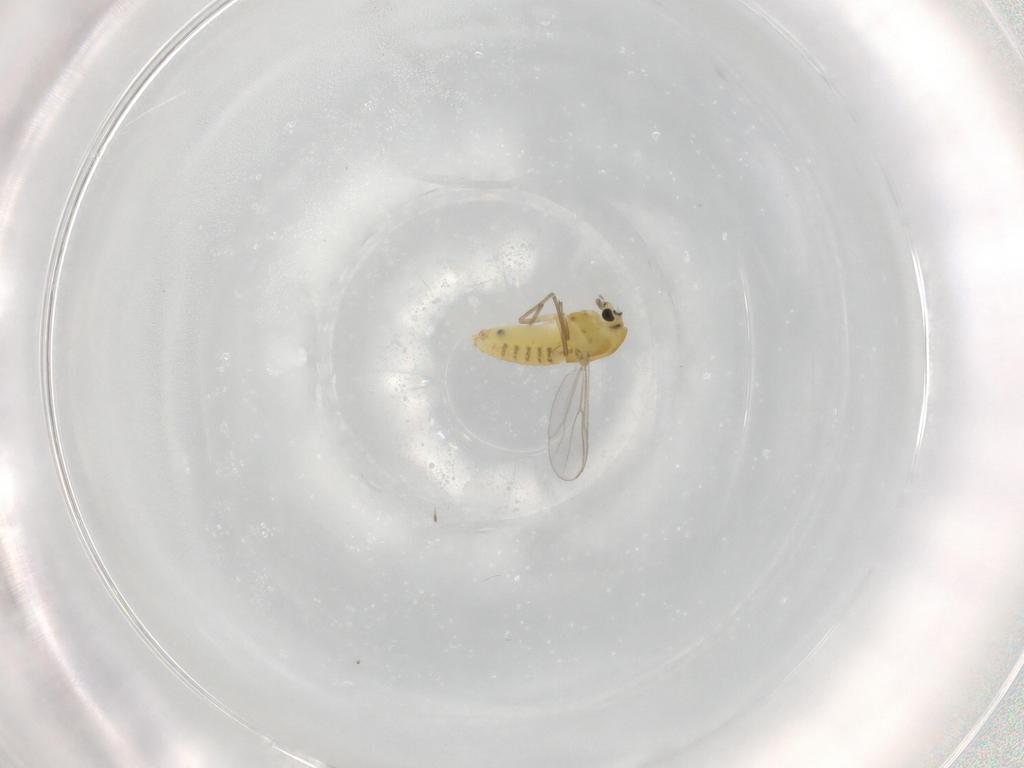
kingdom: Animalia
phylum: Arthropoda
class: Insecta
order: Diptera
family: Chironomidae
